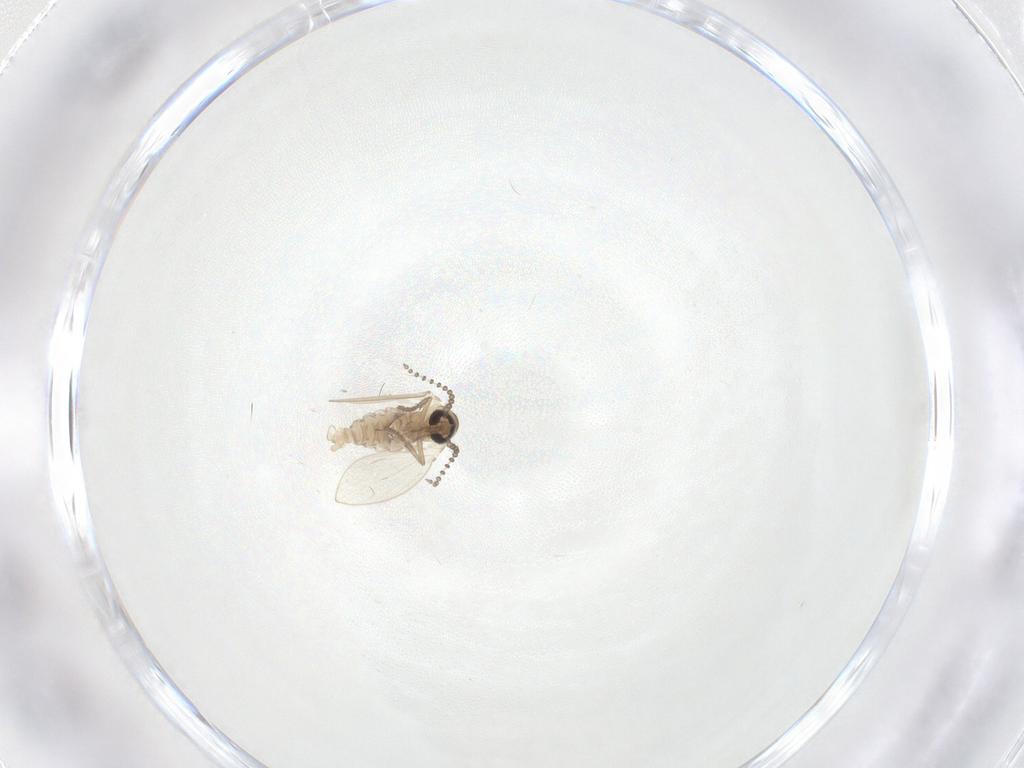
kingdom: Animalia
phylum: Arthropoda
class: Insecta
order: Diptera
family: Psychodidae
